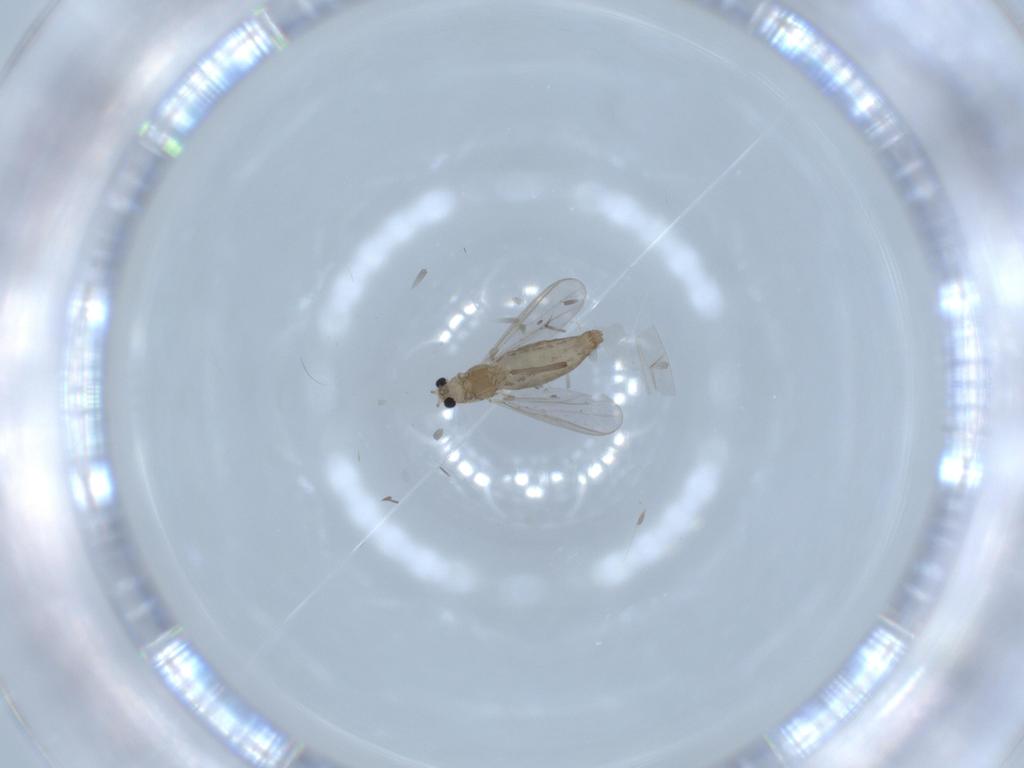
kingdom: Animalia
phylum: Arthropoda
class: Insecta
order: Diptera
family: Chironomidae
